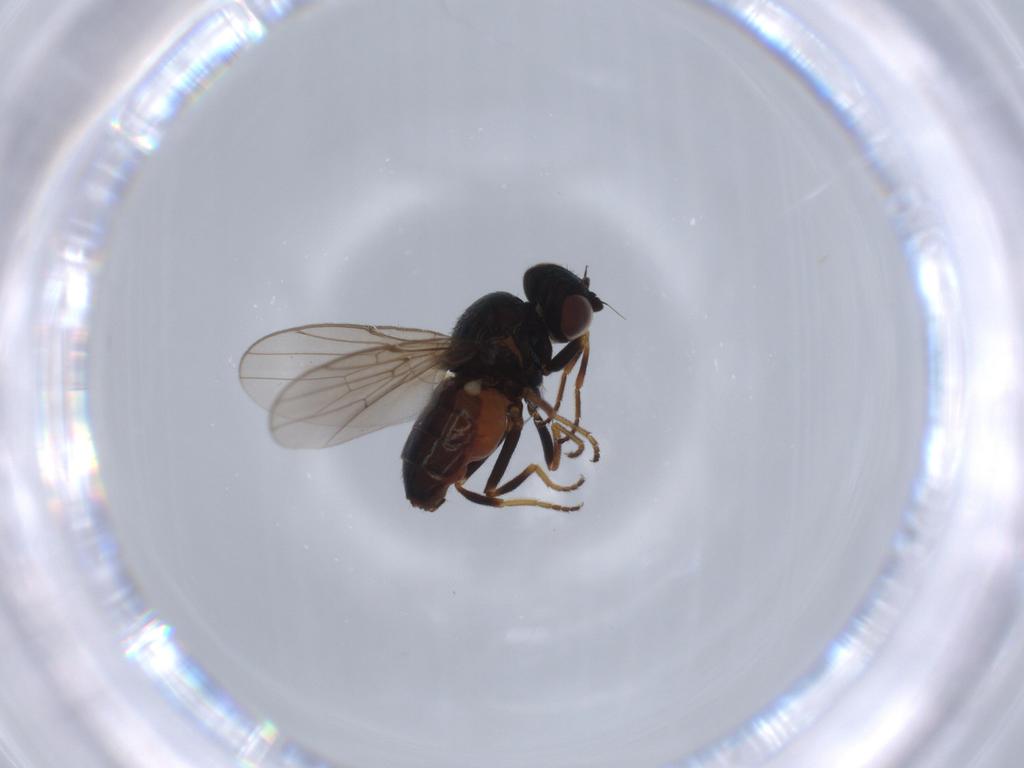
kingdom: Animalia
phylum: Arthropoda
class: Insecta
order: Diptera
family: Chloropidae
